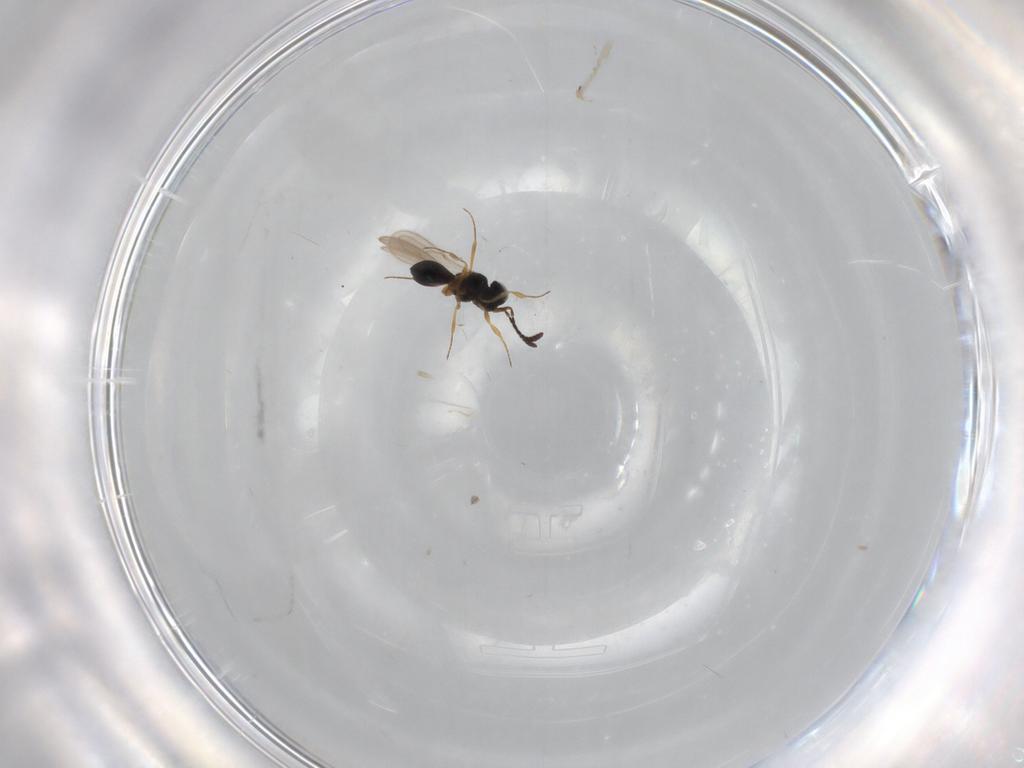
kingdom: Animalia
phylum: Arthropoda
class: Insecta
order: Hymenoptera
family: Scelionidae
